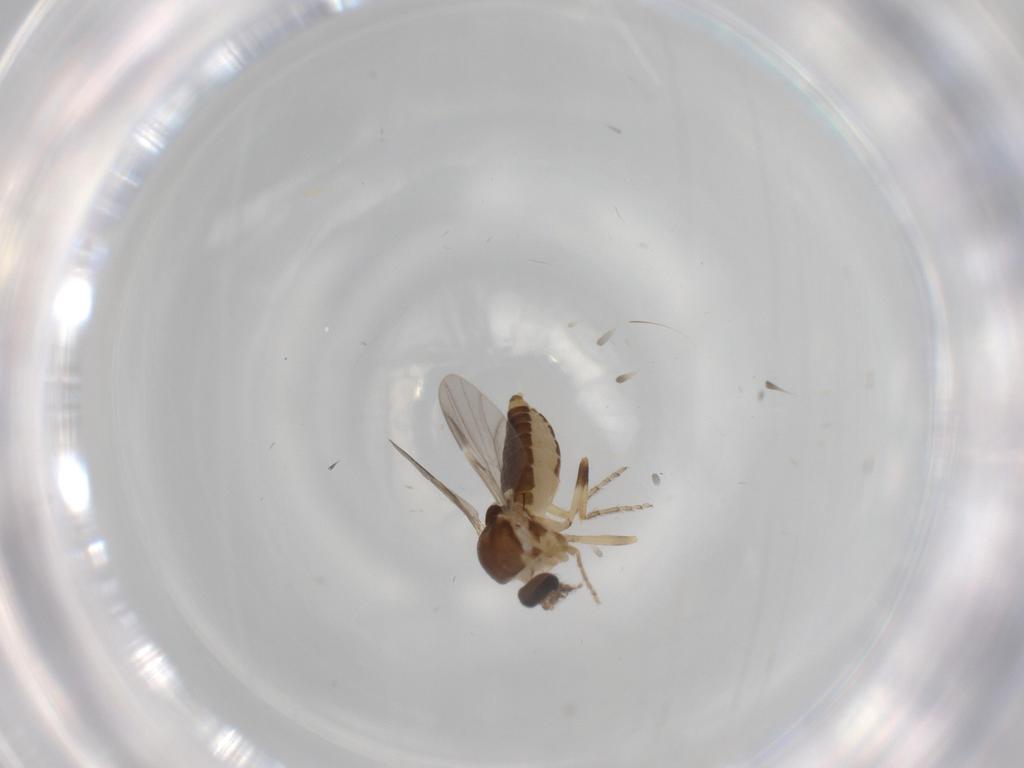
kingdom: Animalia
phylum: Arthropoda
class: Insecta
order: Diptera
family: Ceratopogonidae
